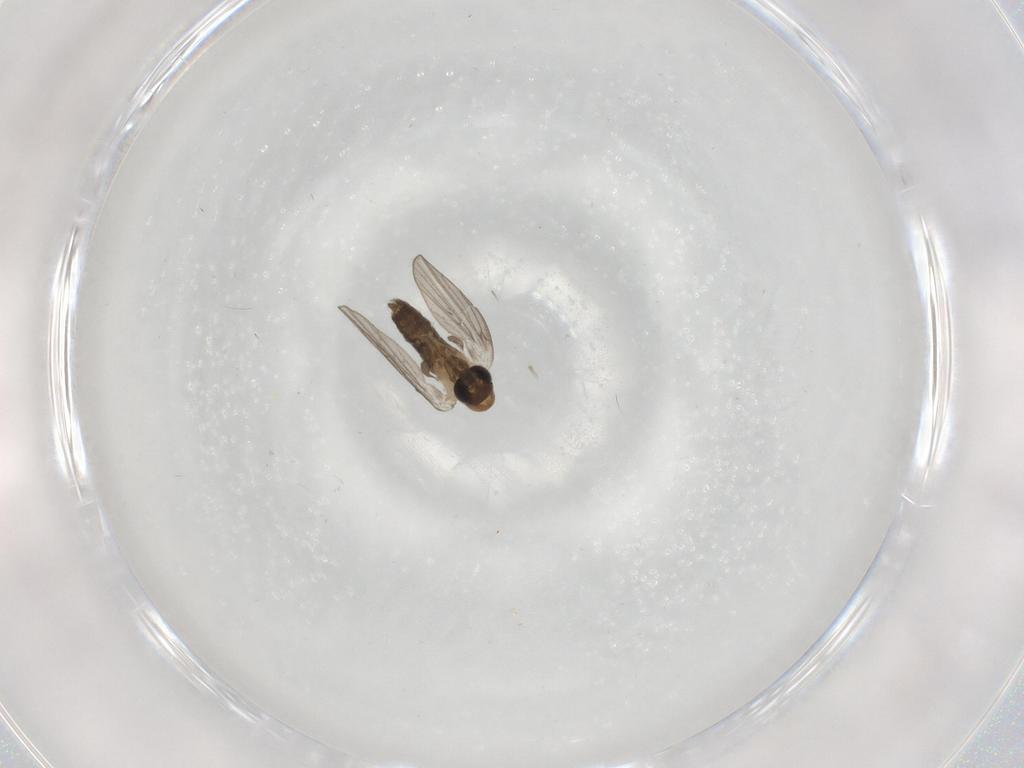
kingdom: Animalia
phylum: Arthropoda
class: Insecta
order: Diptera
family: Psychodidae
